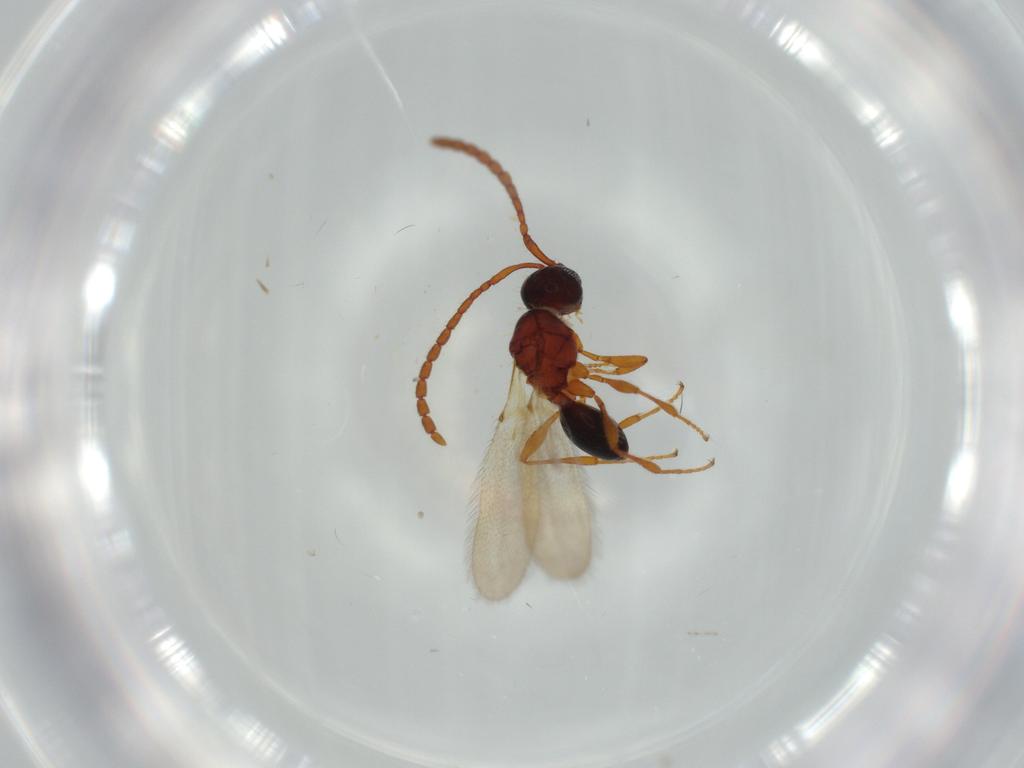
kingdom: Animalia
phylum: Arthropoda
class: Insecta
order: Hymenoptera
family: Diapriidae
